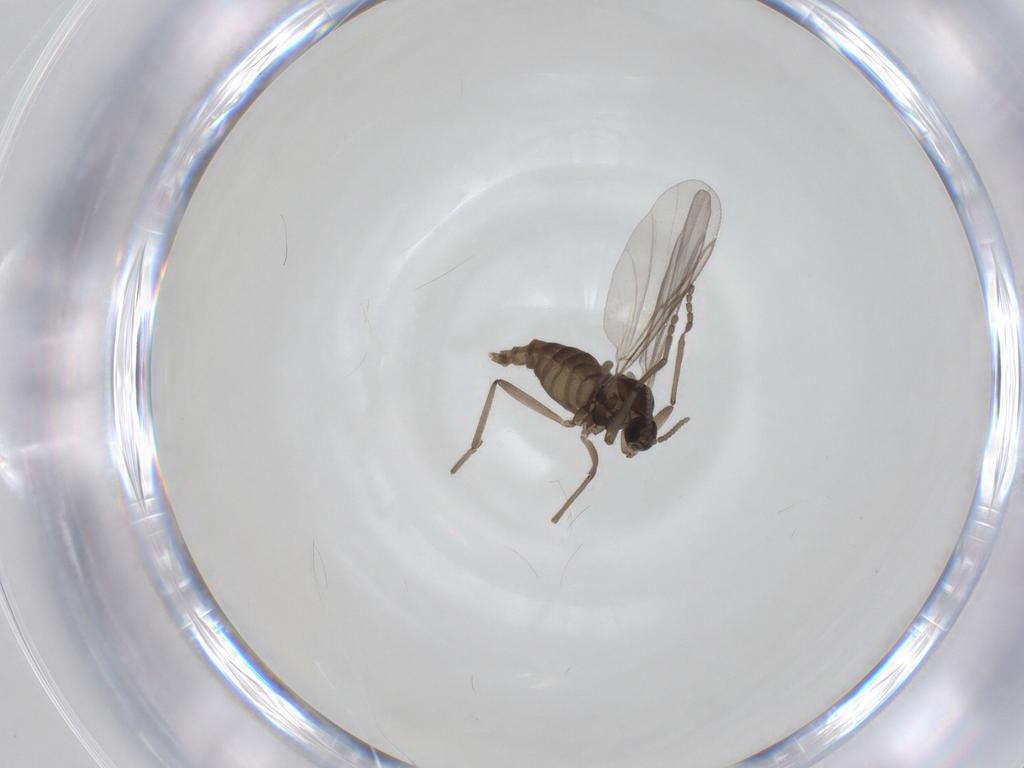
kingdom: Animalia
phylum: Arthropoda
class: Insecta
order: Diptera
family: Cecidomyiidae
